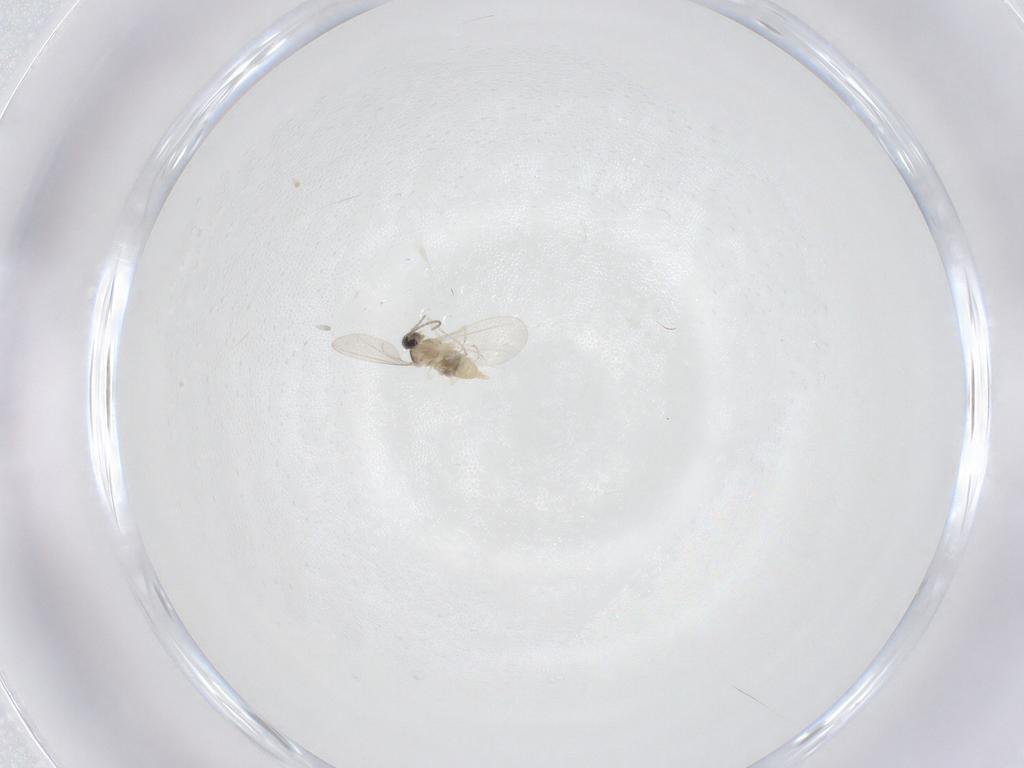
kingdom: Animalia
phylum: Arthropoda
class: Insecta
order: Diptera
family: Cecidomyiidae
